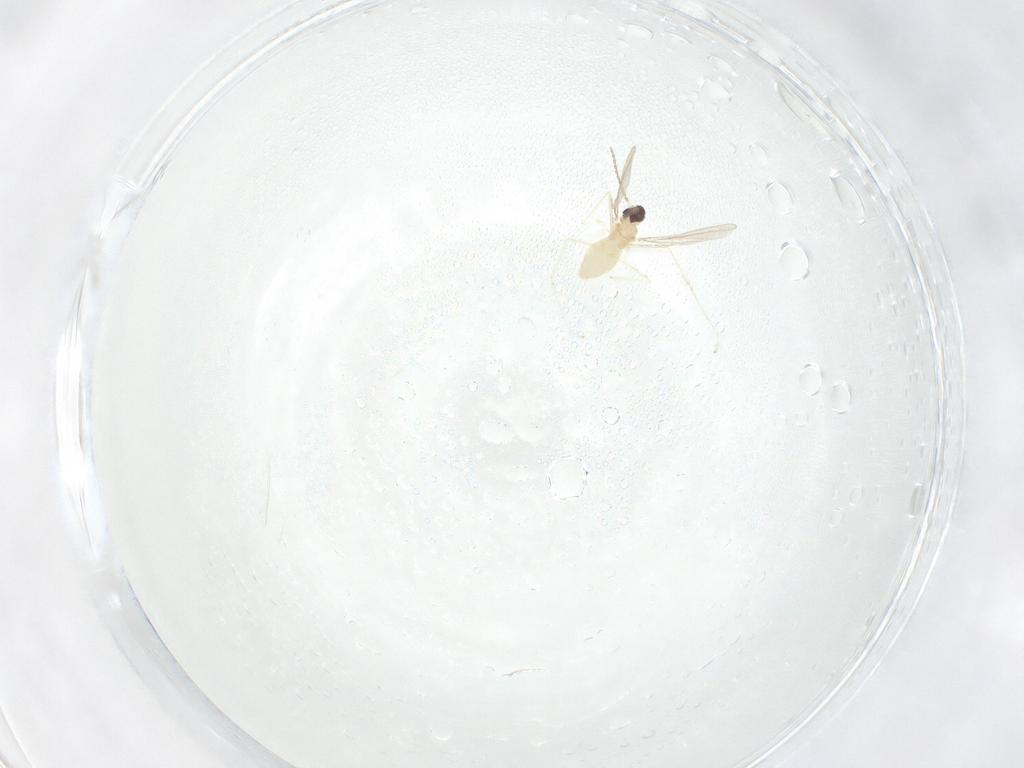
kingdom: Animalia
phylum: Arthropoda
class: Insecta
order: Diptera
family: Cecidomyiidae
